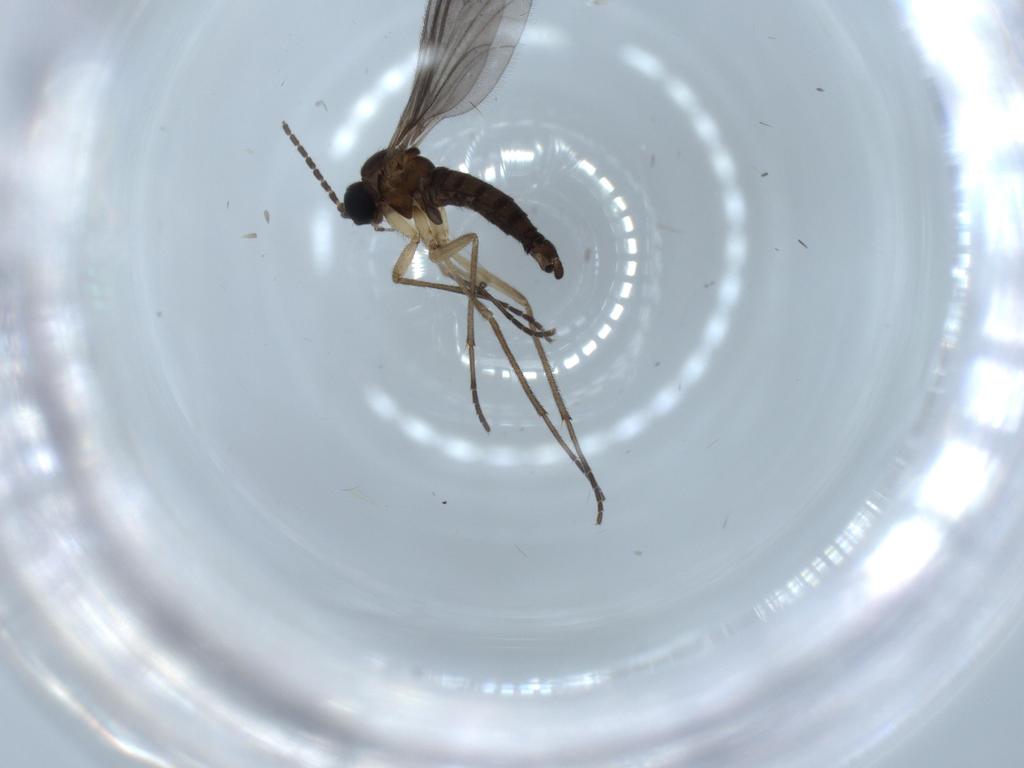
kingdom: Animalia
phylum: Arthropoda
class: Insecta
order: Diptera
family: Sciaridae
